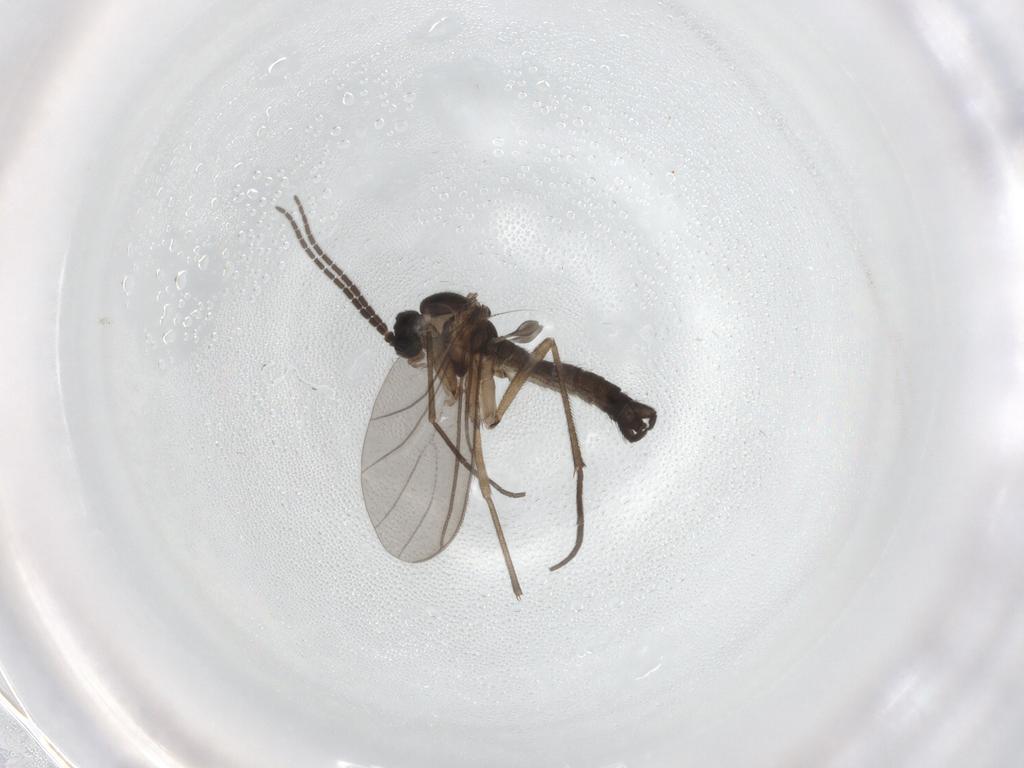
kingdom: Animalia
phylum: Arthropoda
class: Insecta
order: Diptera
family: Sciaridae
